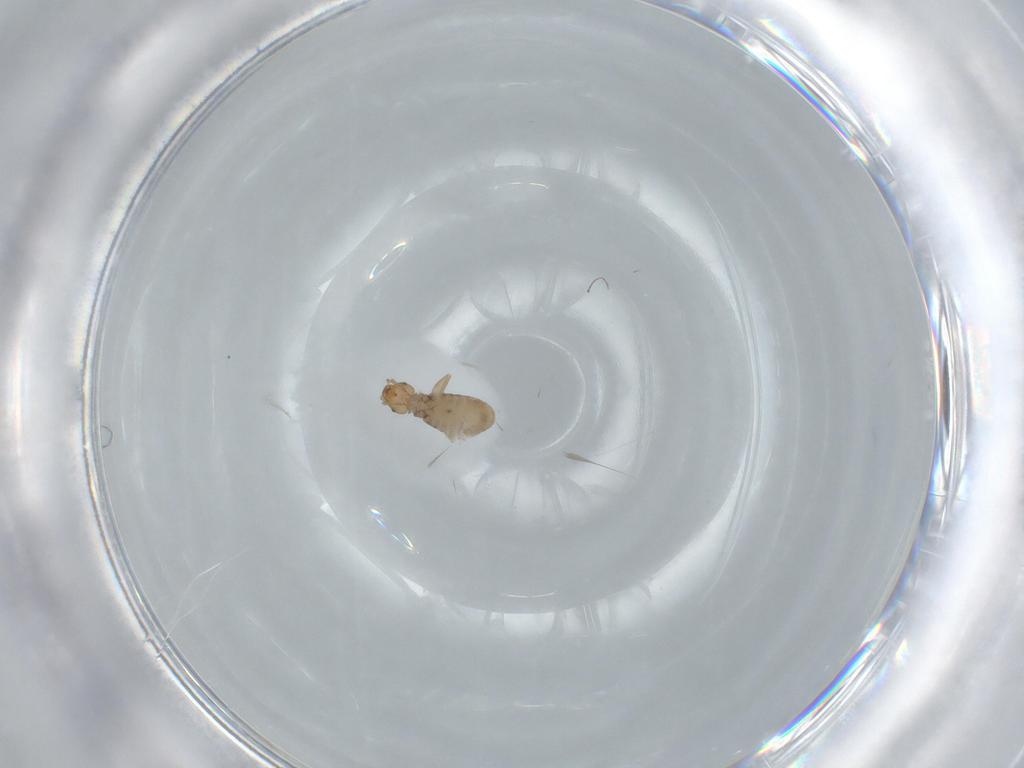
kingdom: Animalia
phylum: Arthropoda
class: Insecta
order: Psocodea
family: Liposcelididae
